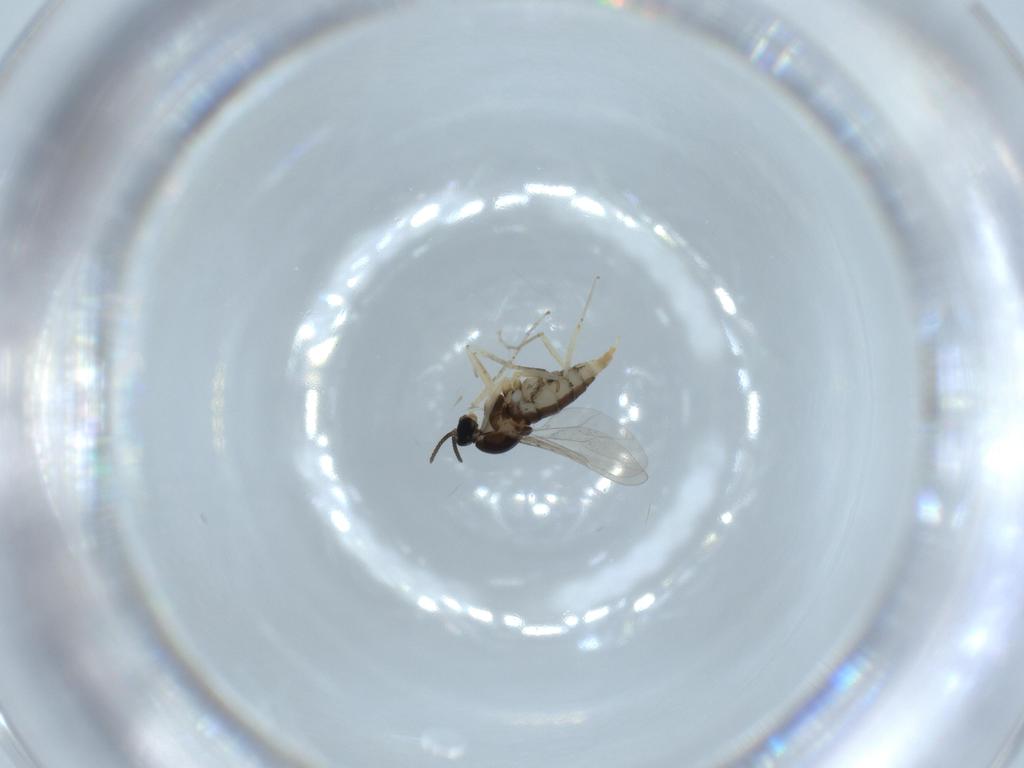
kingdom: Animalia
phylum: Arthropoda
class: Insecta
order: Diptera
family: Cecidomyiidae
